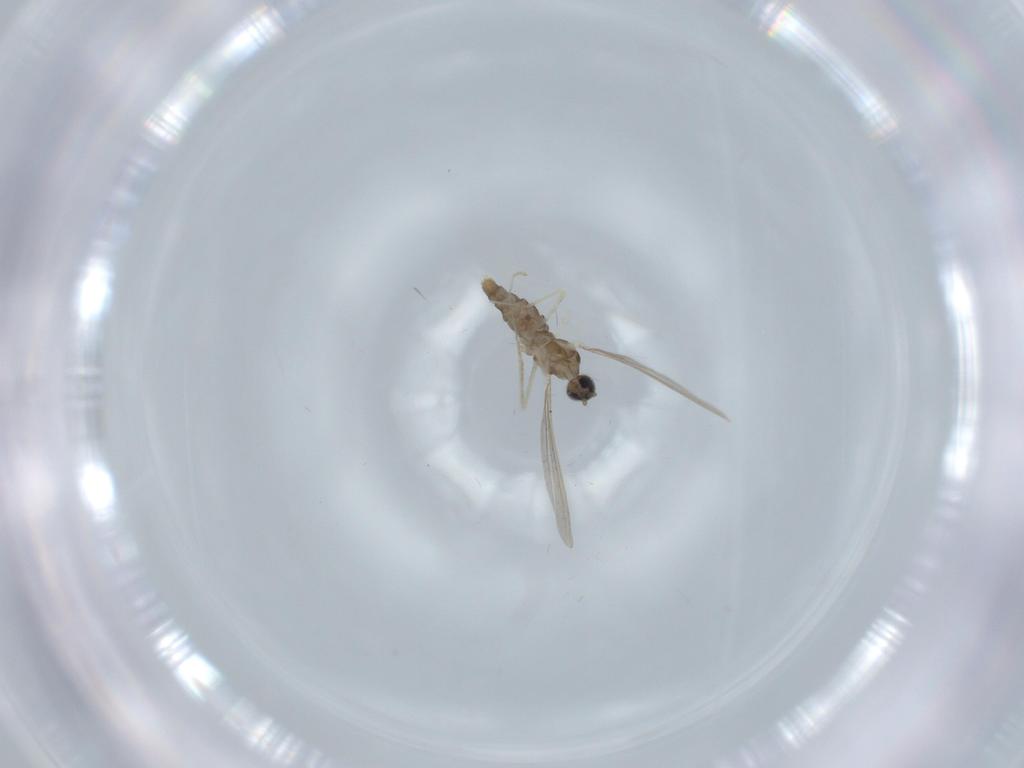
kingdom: Animalia
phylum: Arthropoda
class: Insecta
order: Diptera
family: Cecidomyiidae
